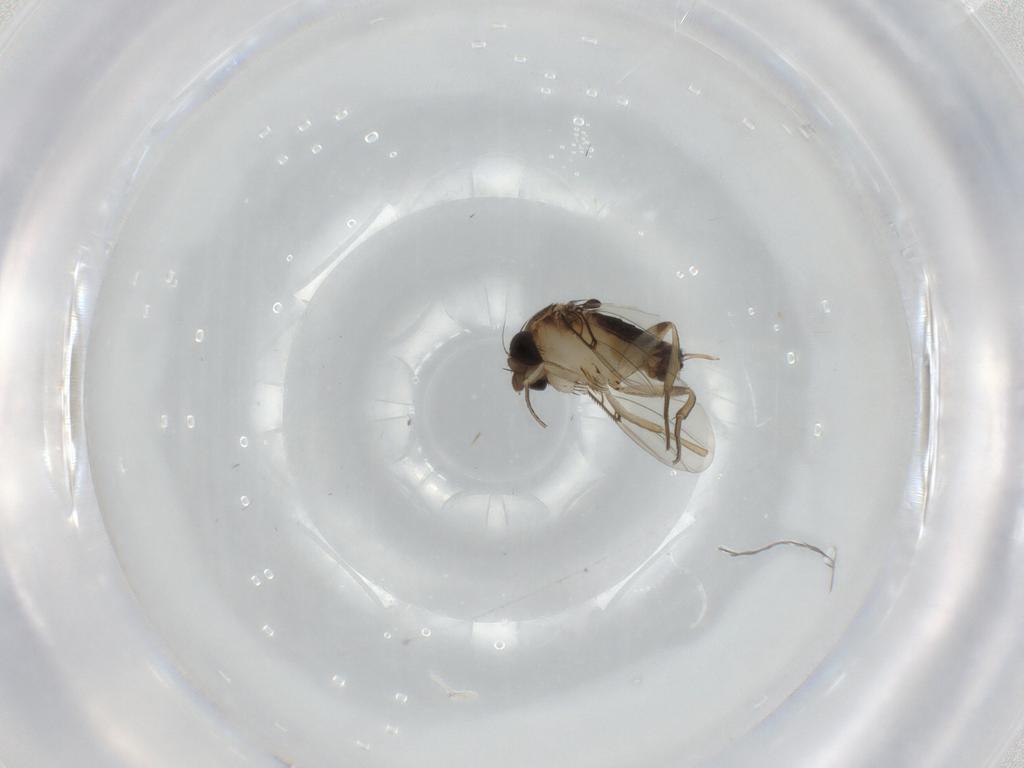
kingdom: Animalia
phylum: Arthropoda
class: Insecta
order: Diptera
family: Phoridae
